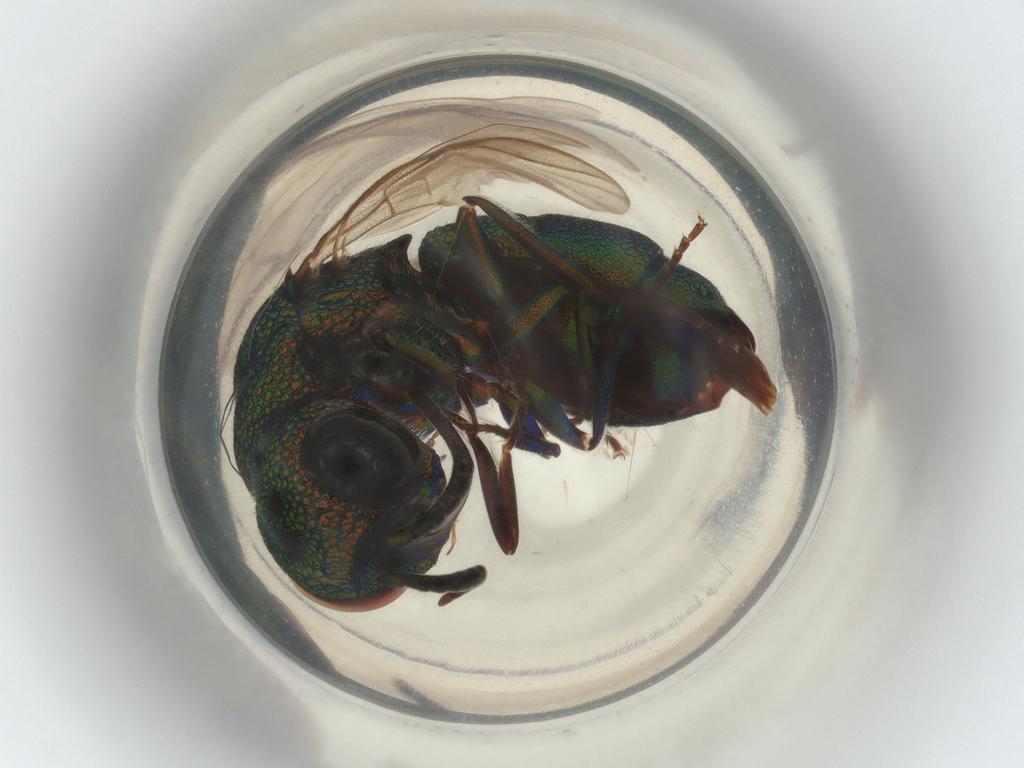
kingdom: Animalia
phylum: Arthropoda
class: Insecta
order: Hymenoptera
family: Chrysididae
